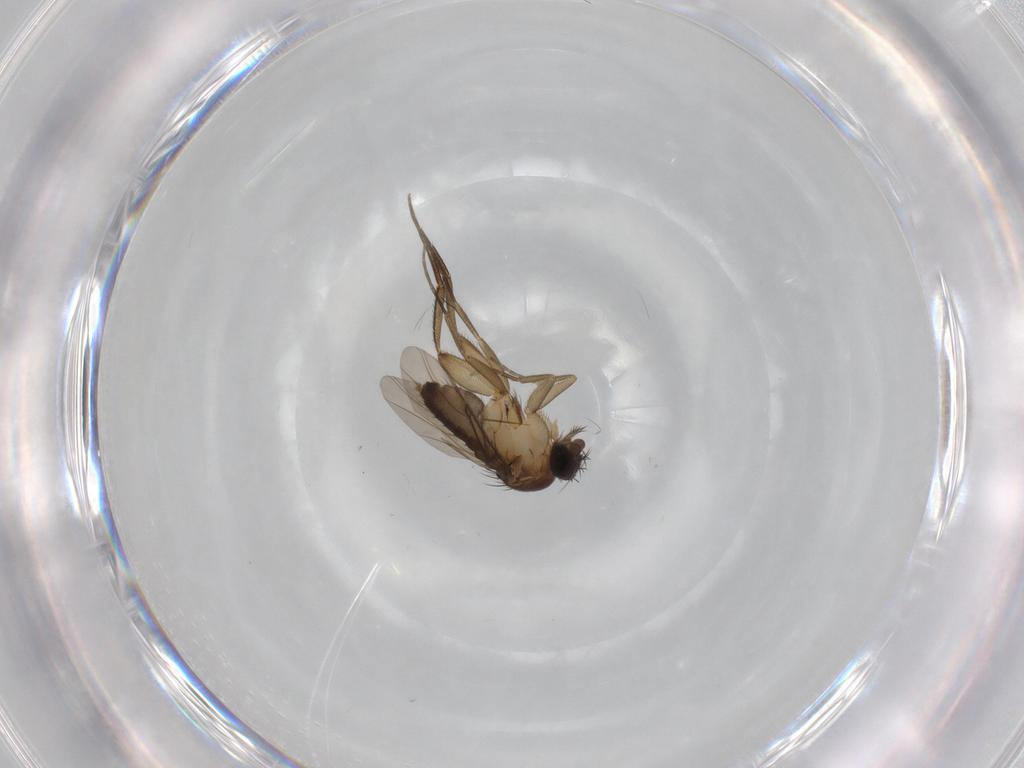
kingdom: Animalia
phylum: Arthropoda
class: Insecta
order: Diptera
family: Phoridae
